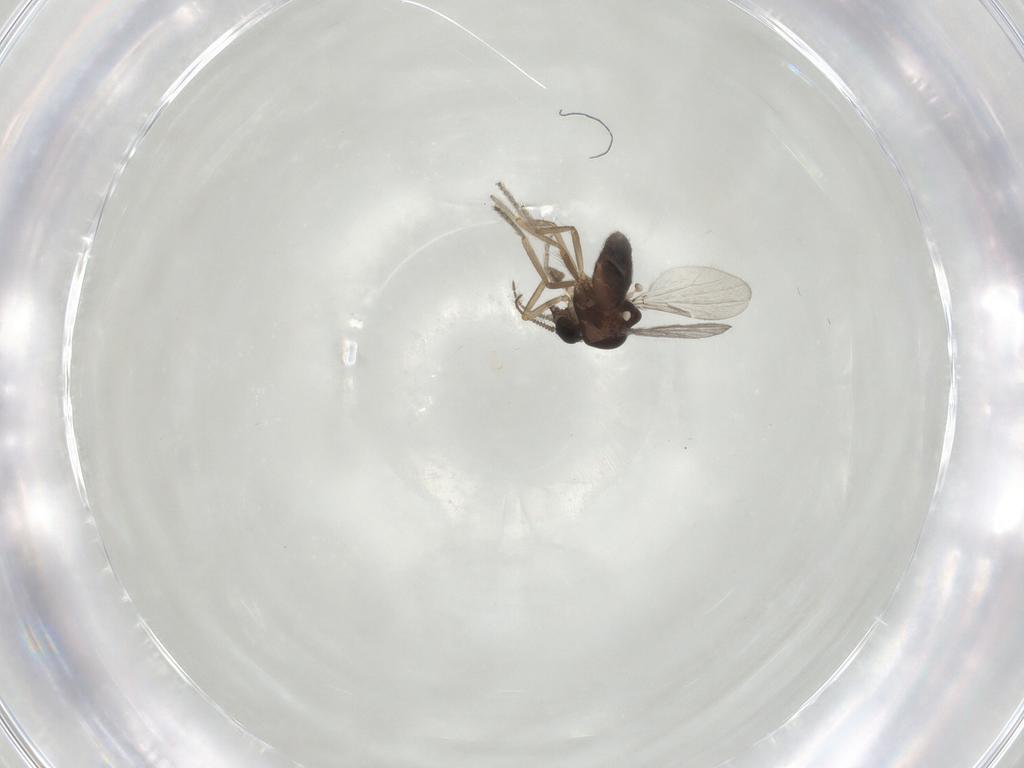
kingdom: Animalia
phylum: Arthropoda
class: Insecta
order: Diptera
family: Ceratopogonidae
